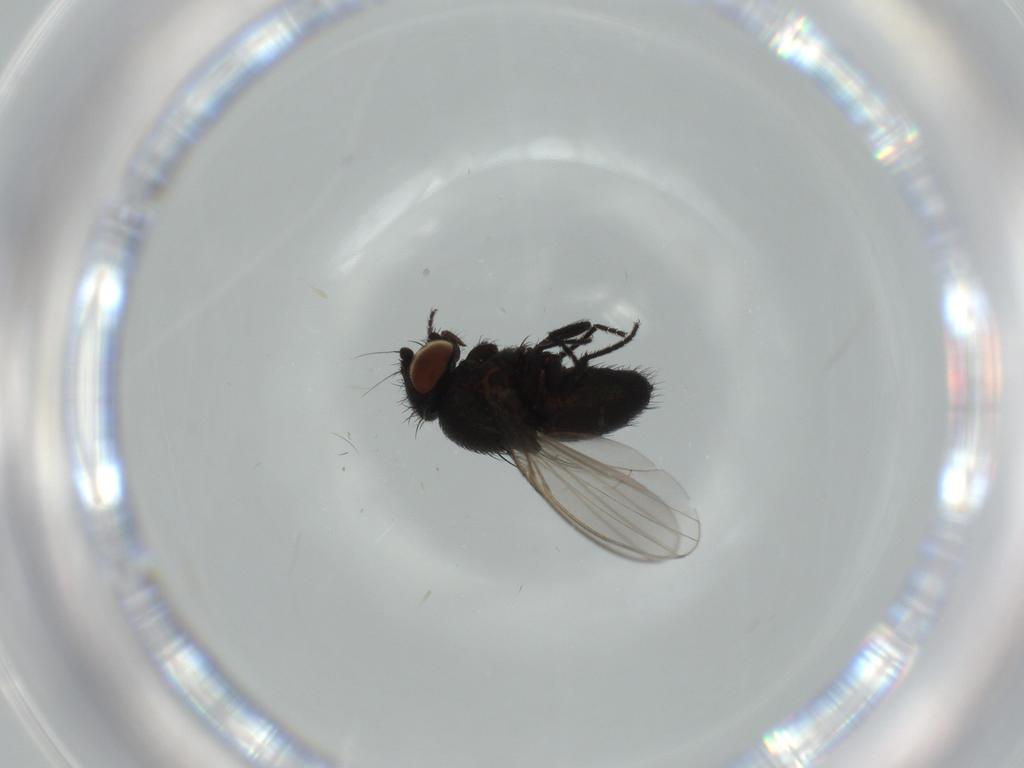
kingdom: Animalia
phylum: Arthropoda
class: Insecta
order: Diptera
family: Milichiidae
